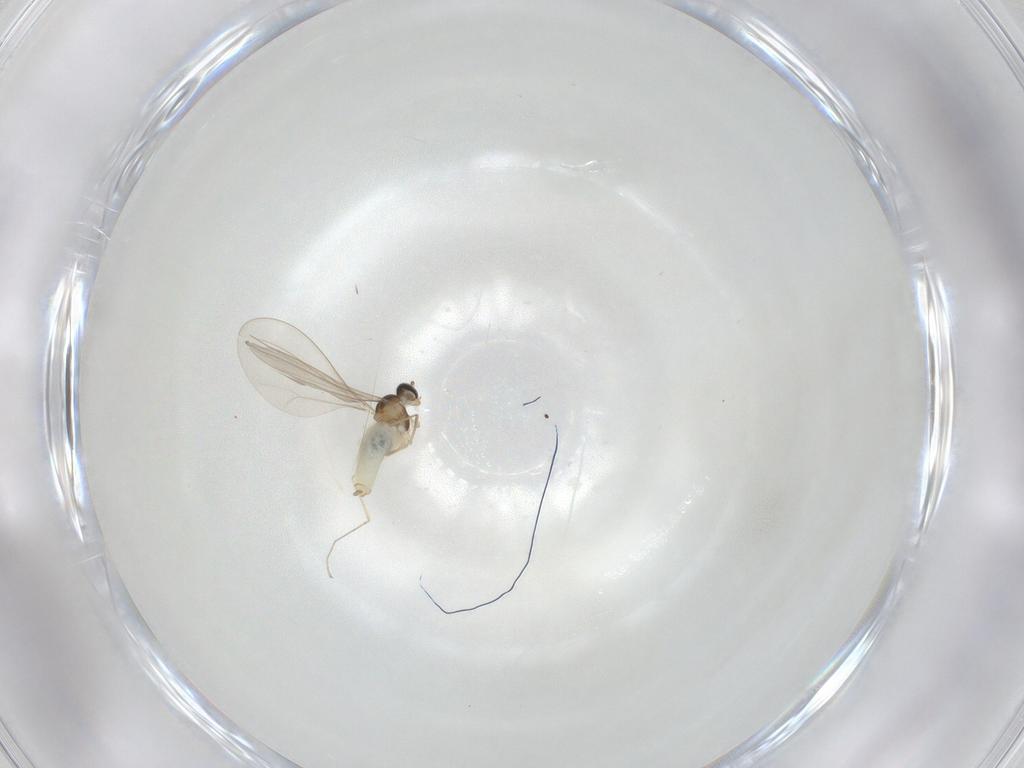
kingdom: Animalia
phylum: Arthropoda
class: Insecta
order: Diptera
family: Cecidomyiidae
